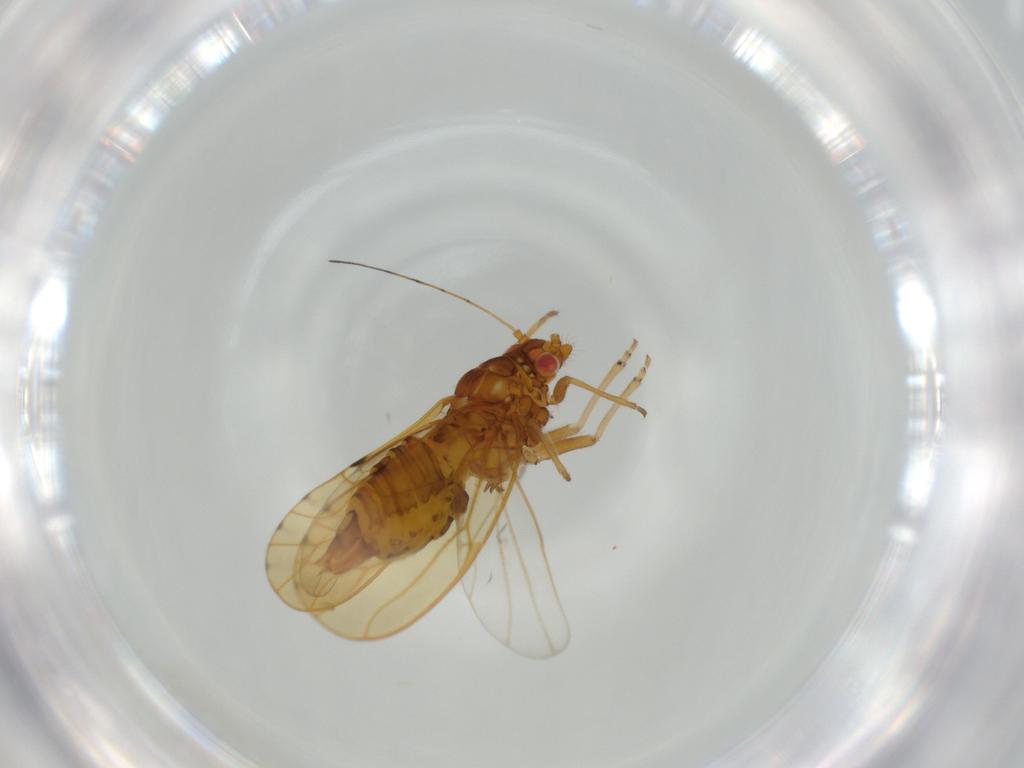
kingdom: Animalia
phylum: Arthropoda
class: Insecta
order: Hemiptera
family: Psylloidea_incertae_sedis
